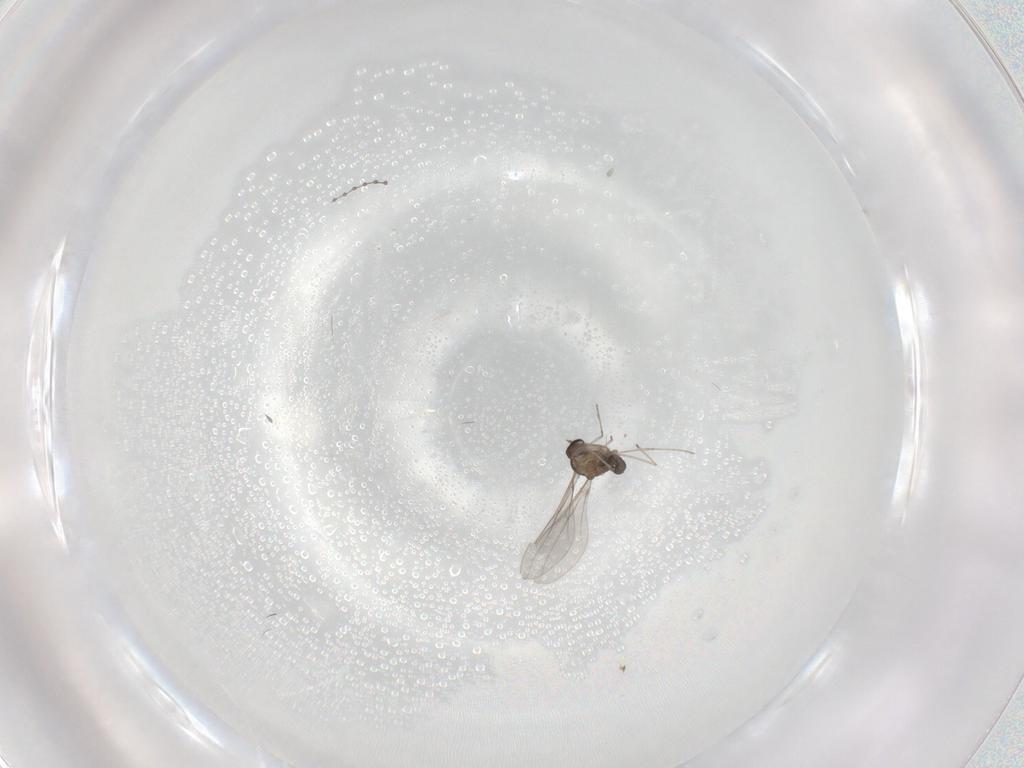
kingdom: Animalia
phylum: Arthropoda
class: Insecta
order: Diptera
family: Cecidomyiidae
